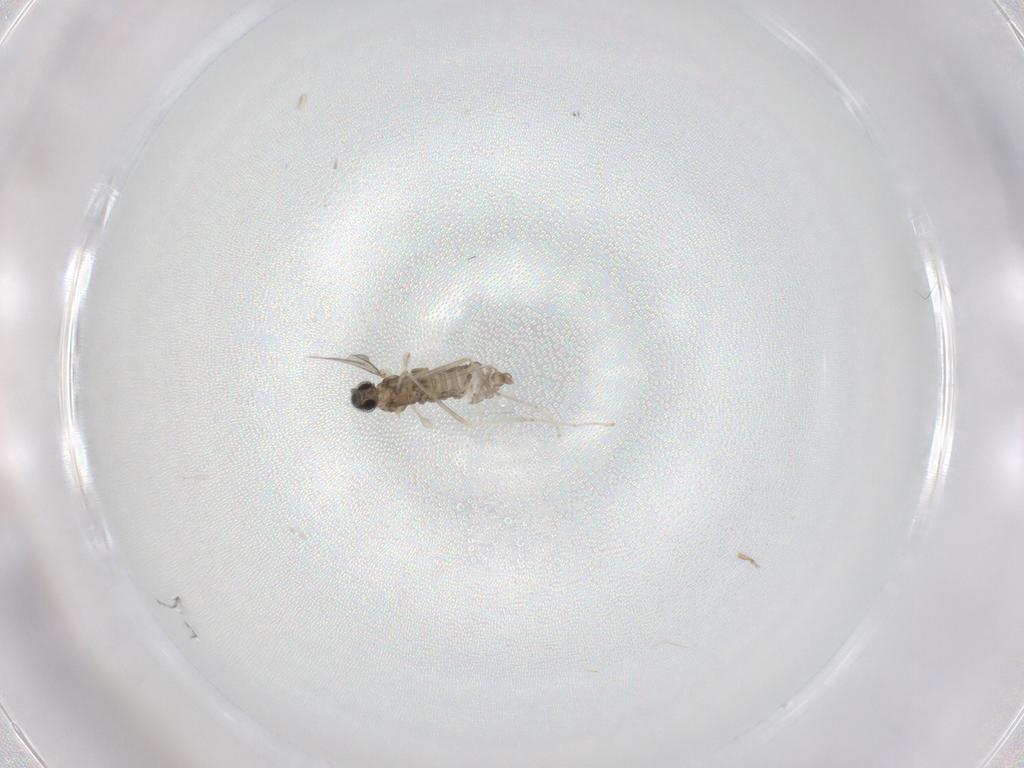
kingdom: Animalia
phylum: Arthropoda
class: Insecta
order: Diptera
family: Cecidomyiidae
